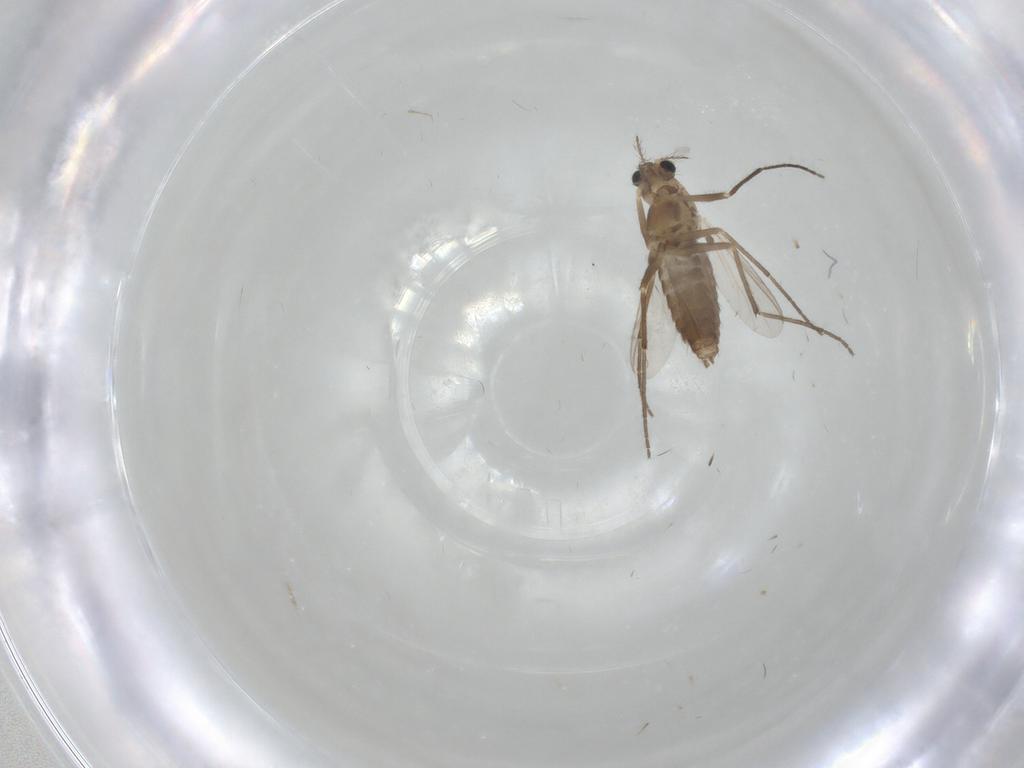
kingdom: Animalia
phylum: Arthropoda
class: Insecta
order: Diptera
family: Chironomidae
